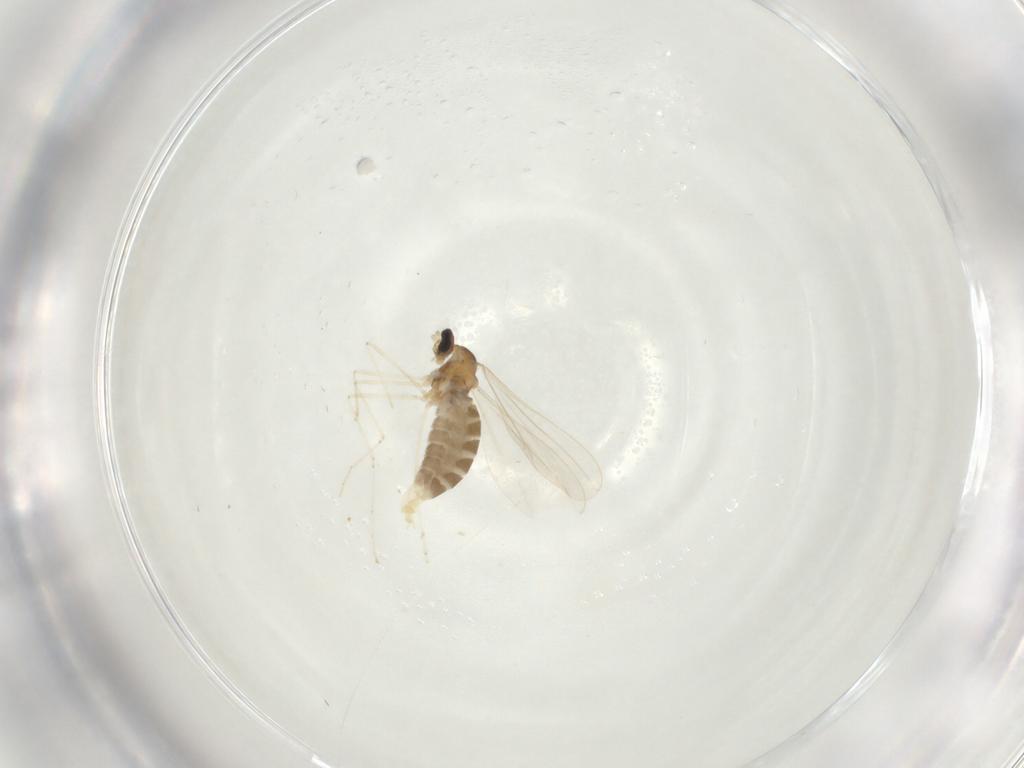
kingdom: Animalia
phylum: Arthropoda
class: Insecta
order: Diptera
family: Cecidomyiidae
